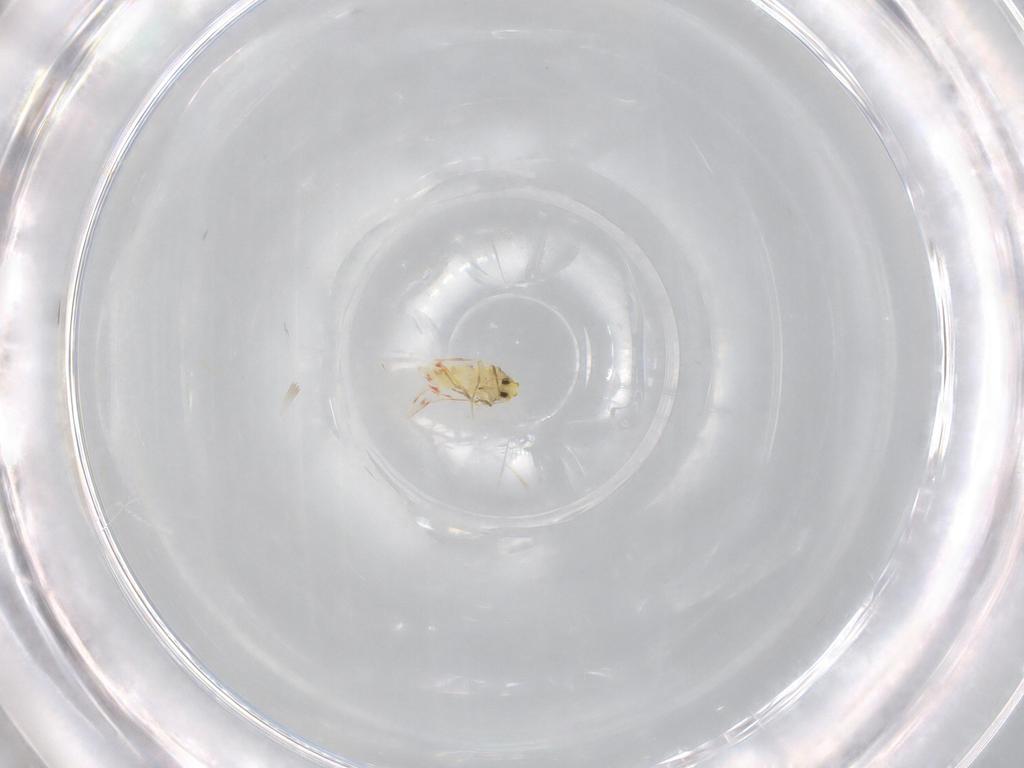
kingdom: Animalia
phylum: Arthropoda
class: Insecta
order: Hemiptera
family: Aleyrodidae
